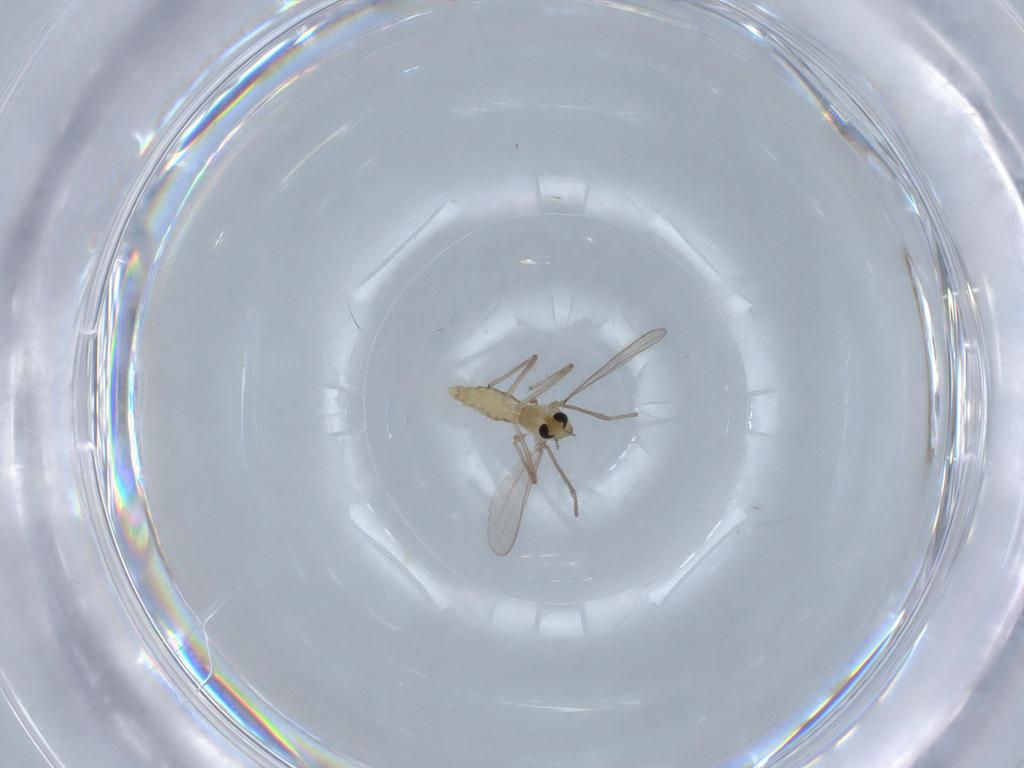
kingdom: Animalia
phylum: Arthropoda
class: Insecta
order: Diptera
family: Chironomidae
